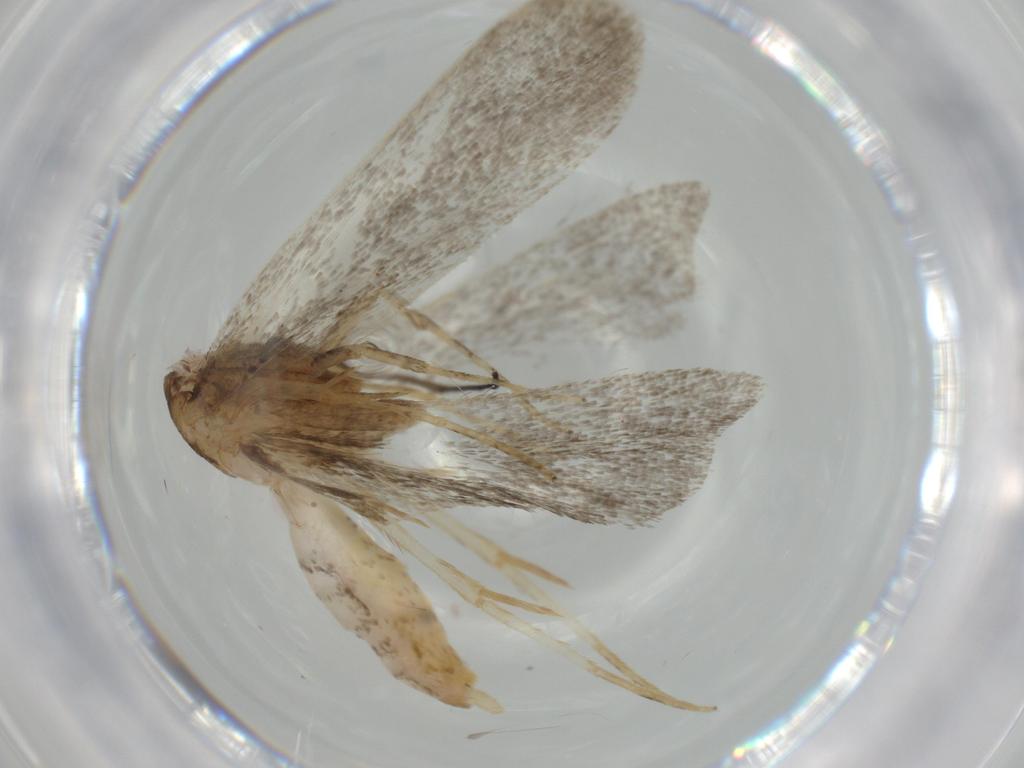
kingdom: Animalia
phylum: Arthropoda
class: Insecta
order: Lepidoptera
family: Autostichidae
